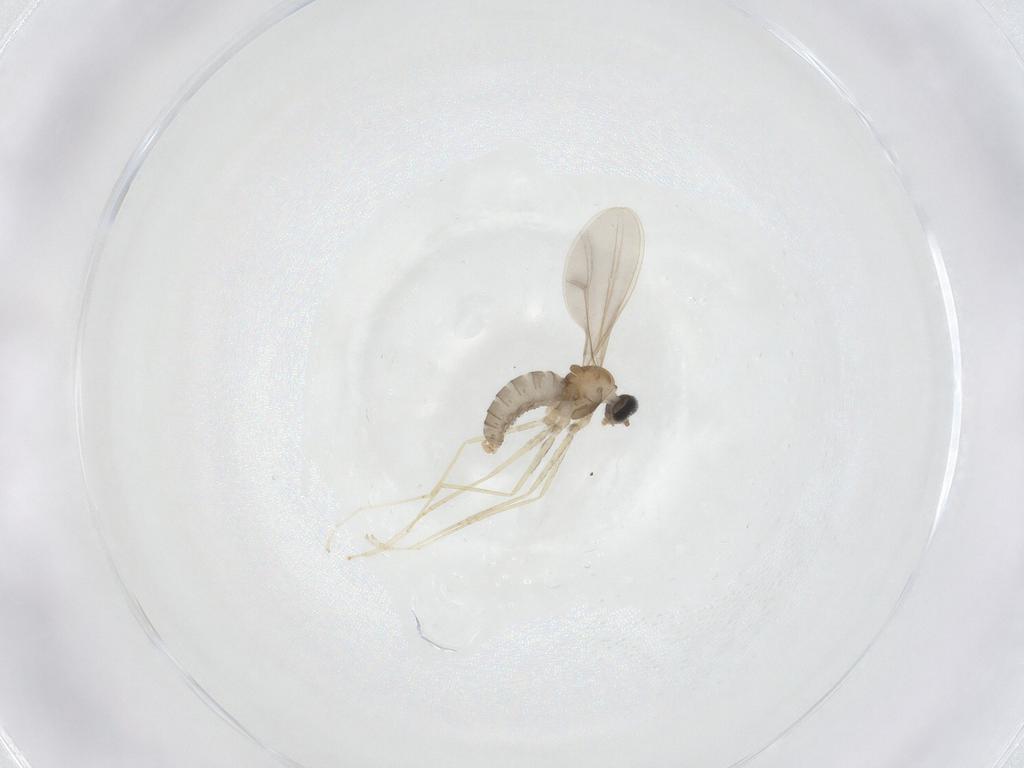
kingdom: Animalia
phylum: Arthropoda
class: Insecta
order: Diptera
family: Cecidomyiidae
